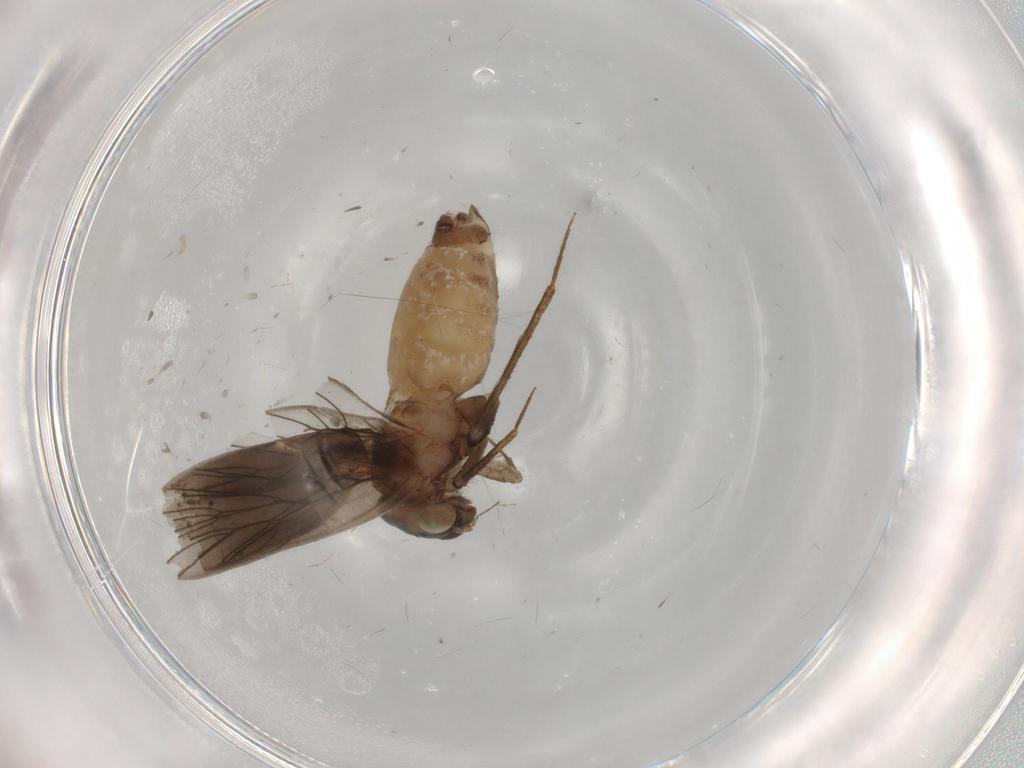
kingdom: Animalia
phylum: Arthropoda
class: Insecta
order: Psocodea
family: Lepidopsocidae
